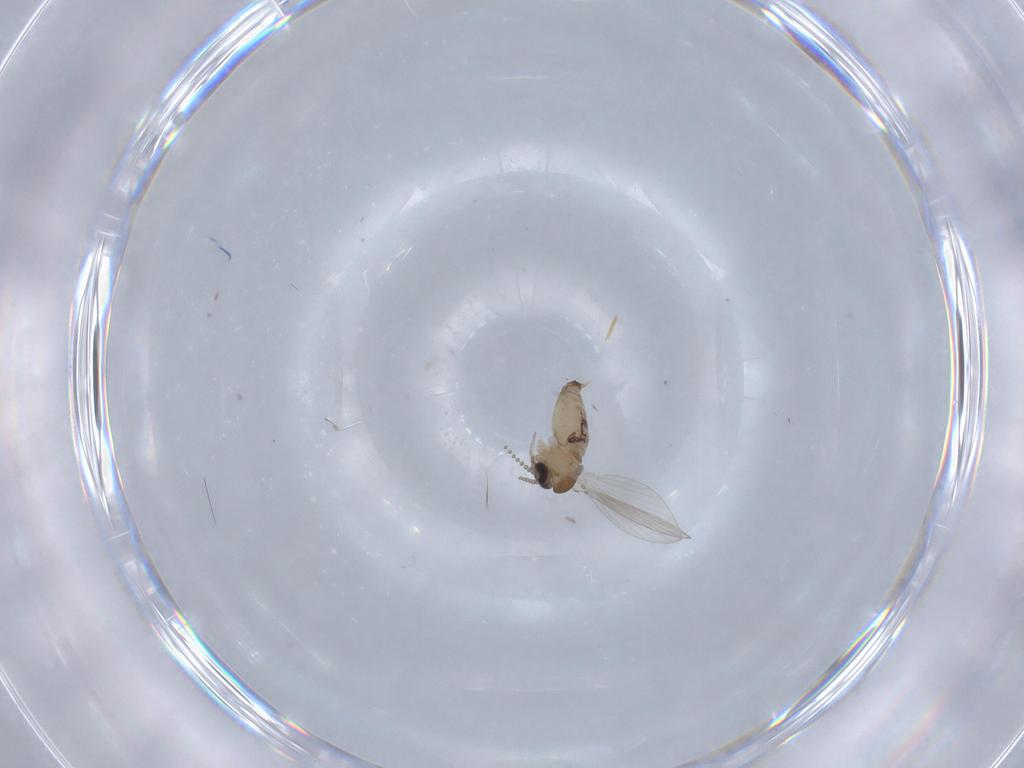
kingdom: Animalia
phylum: Arthropoda
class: Insecta
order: Diptera
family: Psychodidae
